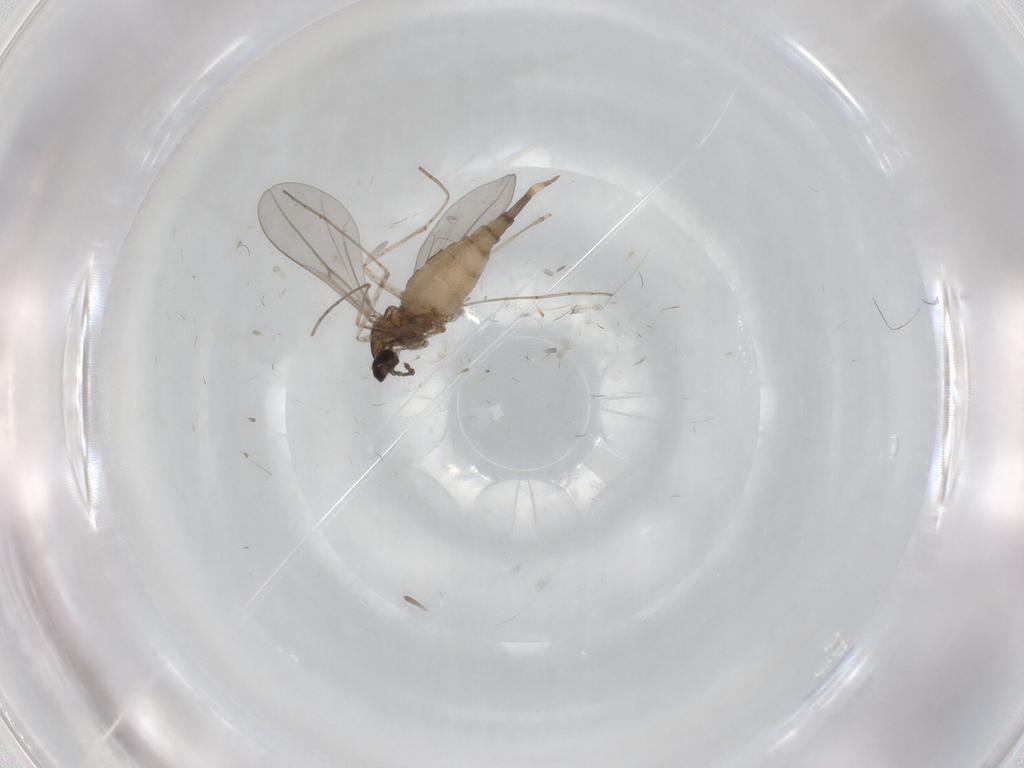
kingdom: Animalia
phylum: Arthropoda
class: Insecta
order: Diptera
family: Cecidomyiidae
